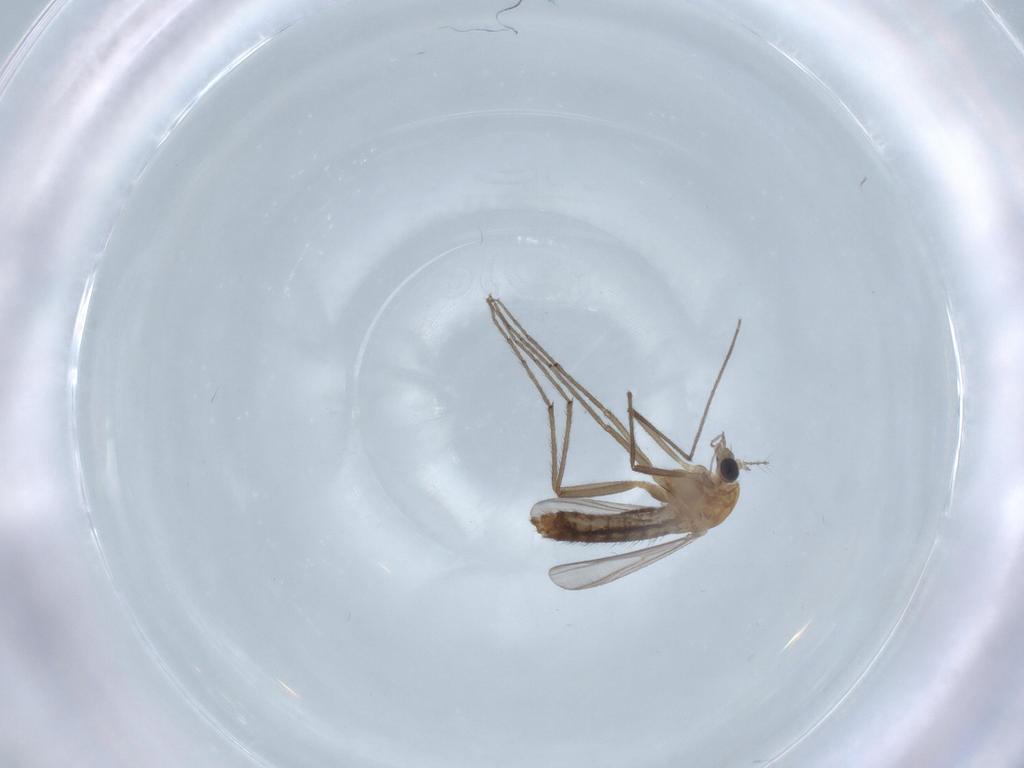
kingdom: Animalia
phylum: Arthropoda
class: Insecta
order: Diptera
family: Chironomidae
